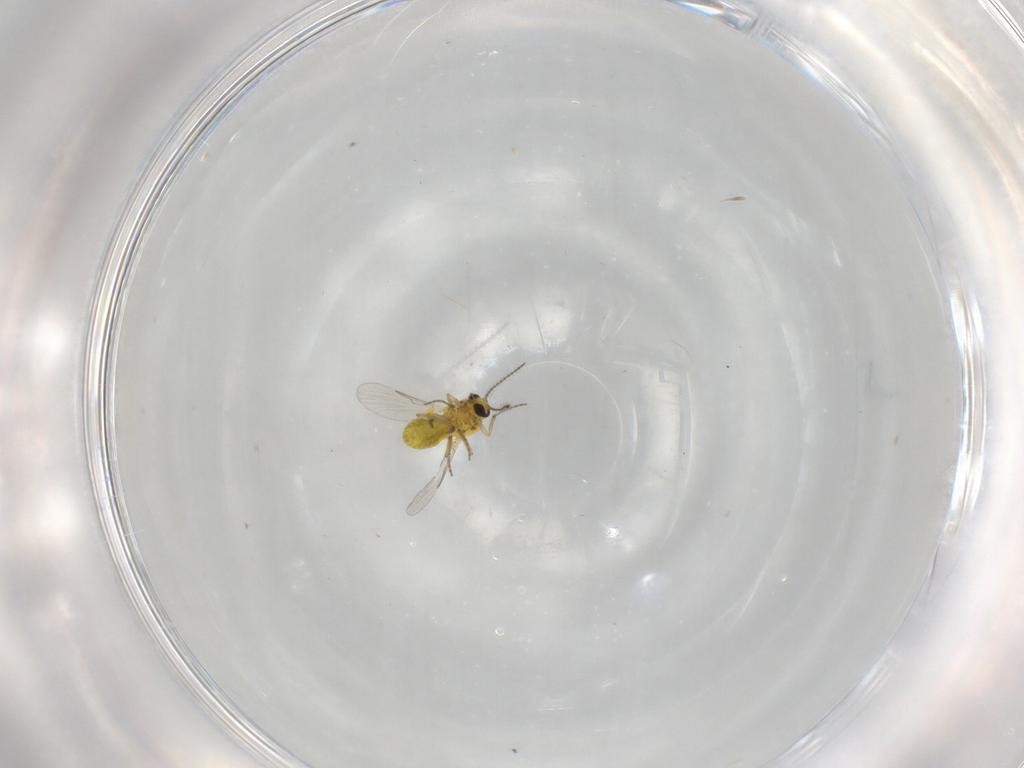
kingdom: Animalia
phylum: Arthropoda
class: Insecta
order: Diptera
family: Ceratopogonidae
